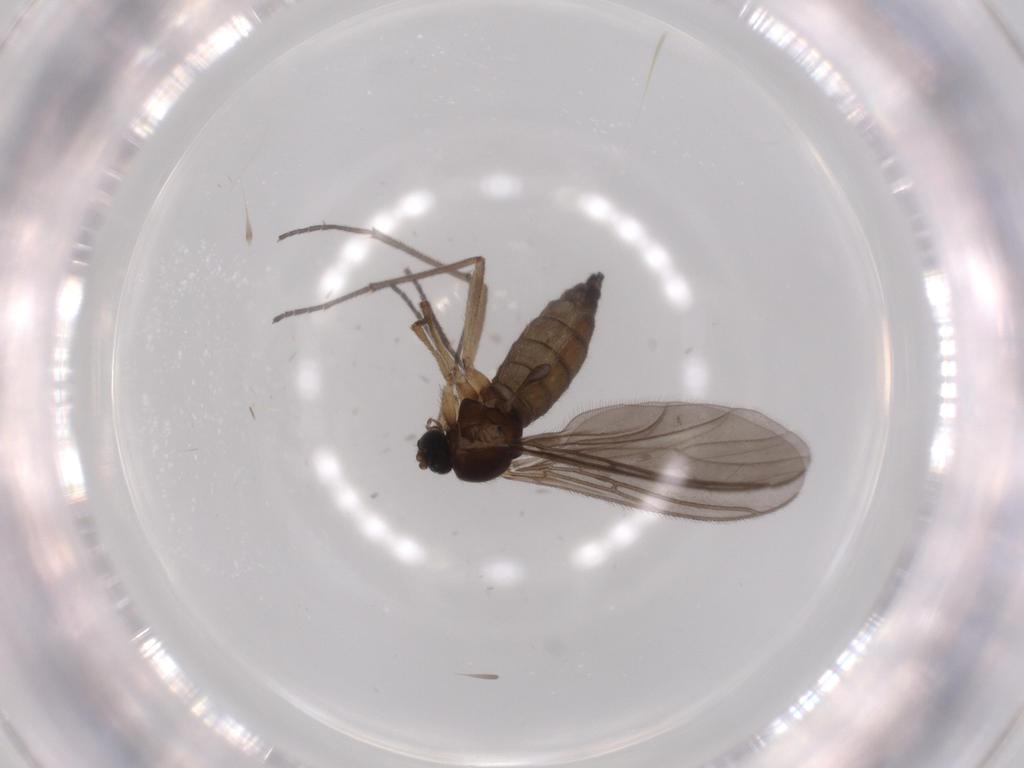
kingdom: Animalia
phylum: Arthropoda
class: Insecta
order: Diptera
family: Sciaridae
